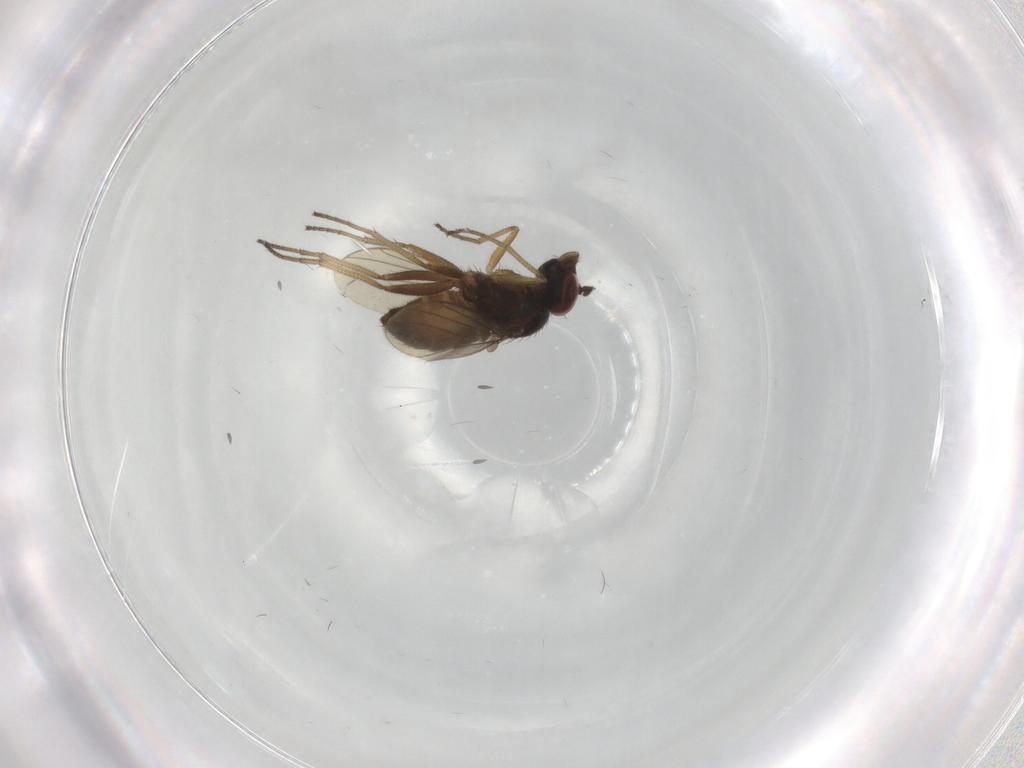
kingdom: Animalia
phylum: Arthropoda
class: Insecta
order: Diptera
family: Dolichopodidae
